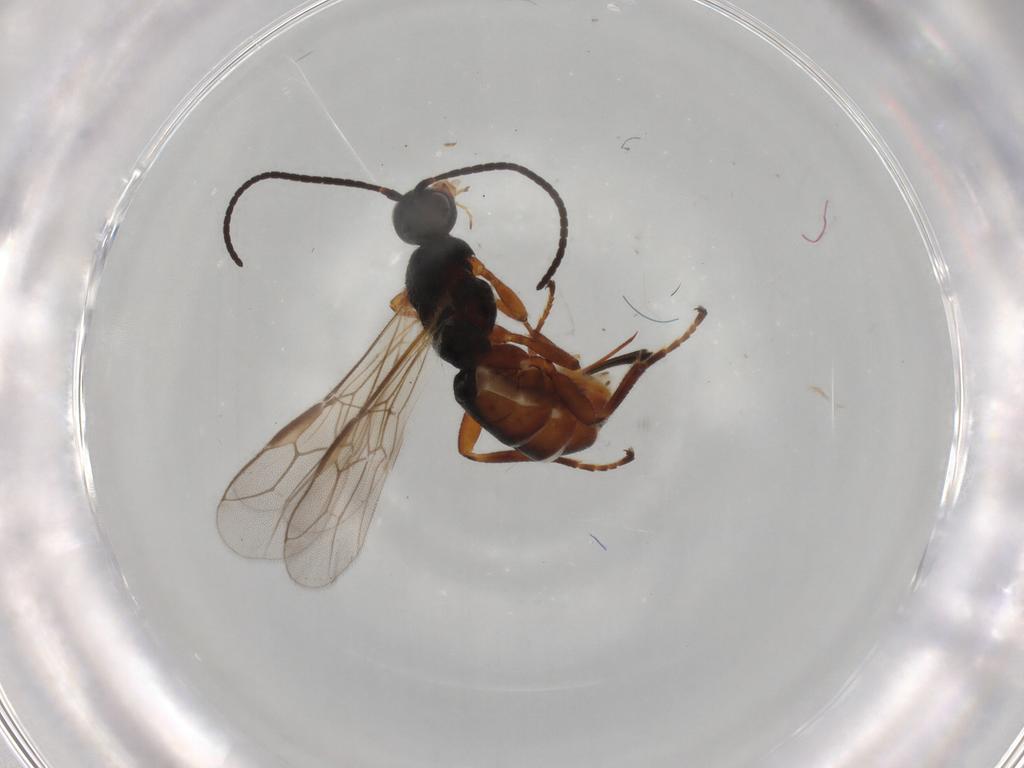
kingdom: Animalia
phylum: Arthropoda
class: Insecta
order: Hymenoptera
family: Braconidae
